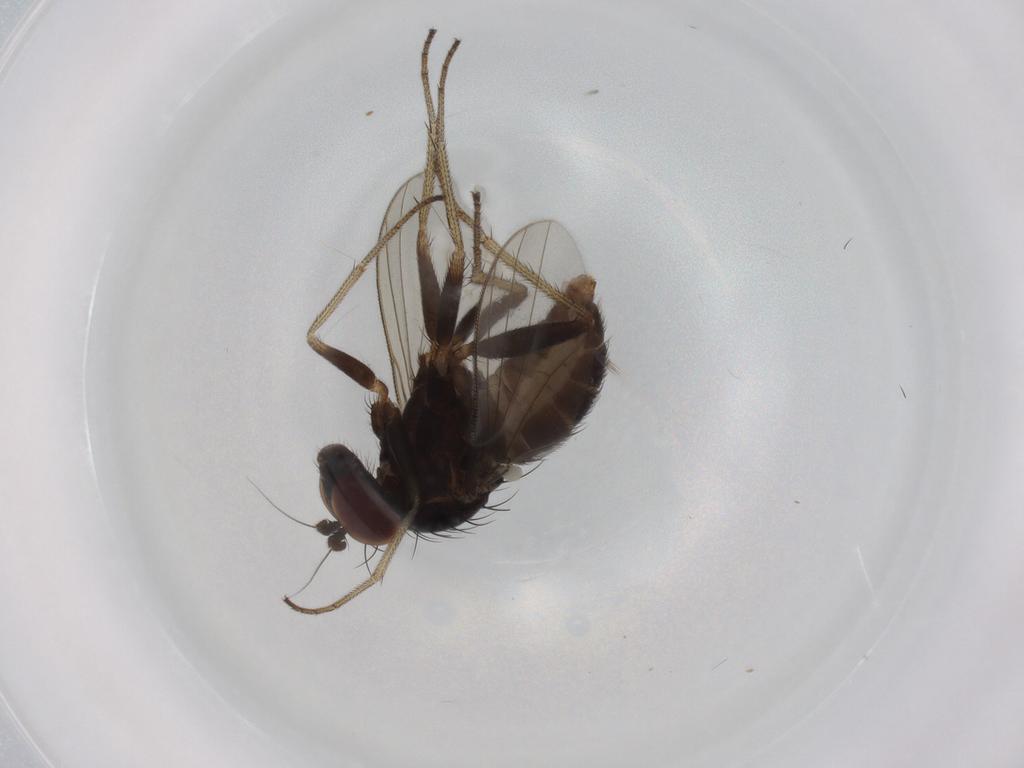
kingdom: Animalia
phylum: Arthropoda
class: Insecta
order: Diptera
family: Dolichopodidae
